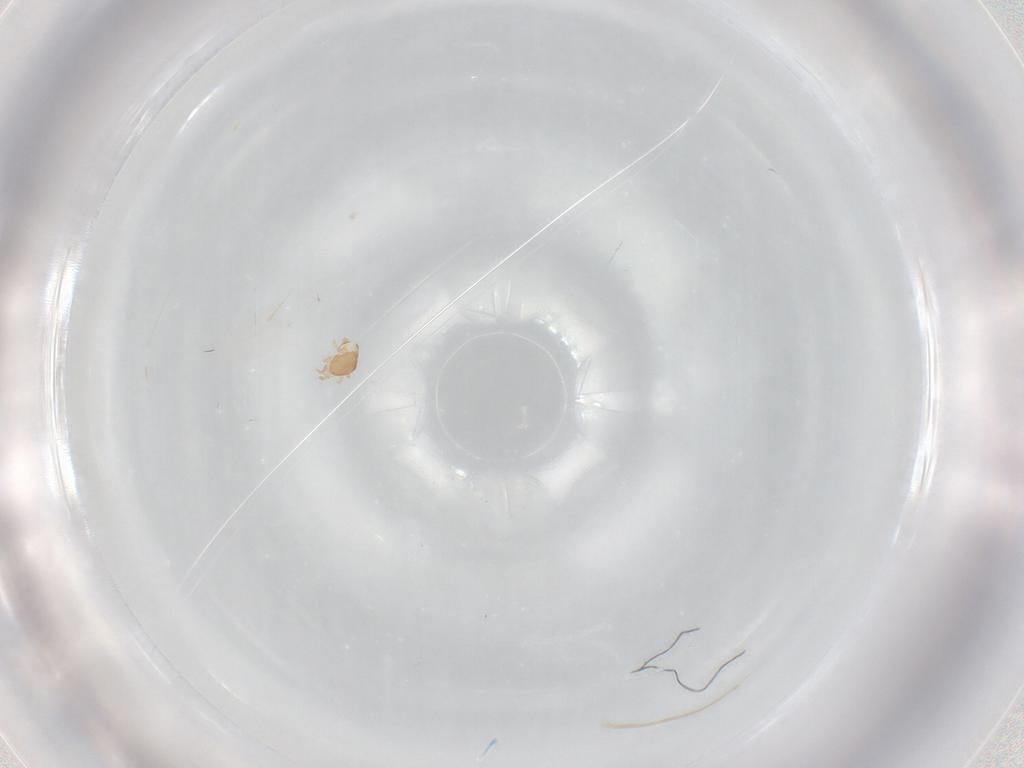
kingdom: Animalia
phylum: Arthropoda
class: Arachnida
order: Mesostigmata
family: Ascidae
